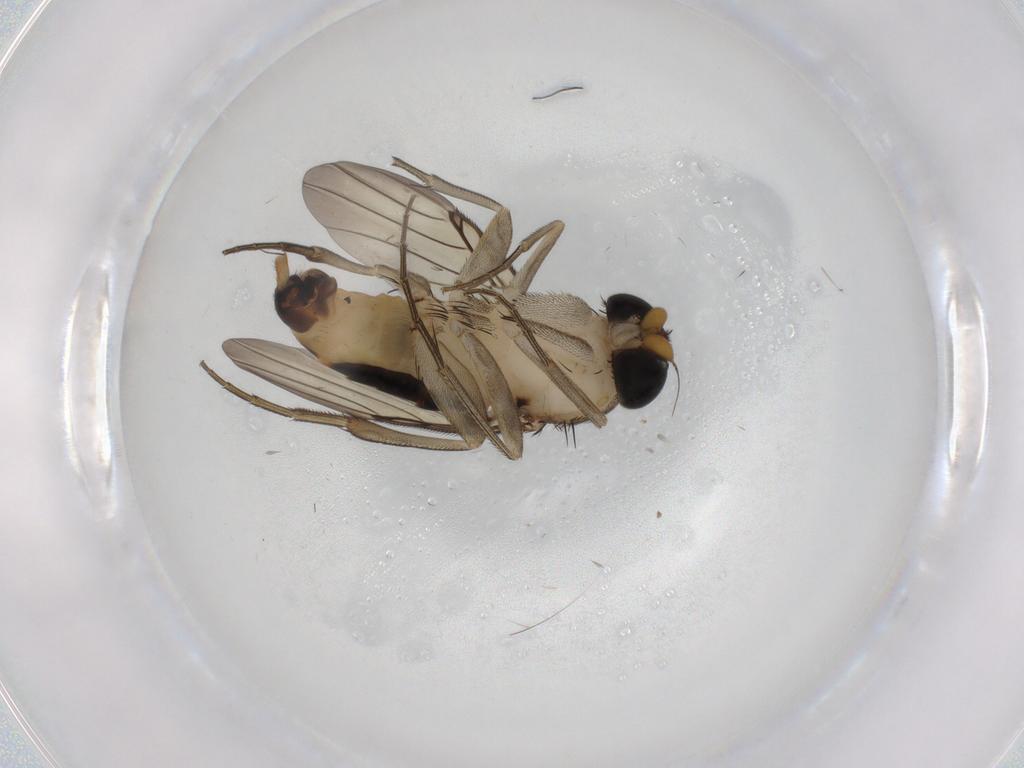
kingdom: Animalia
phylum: Arthropoda
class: Insecta
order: Diptera
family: Phoridae
